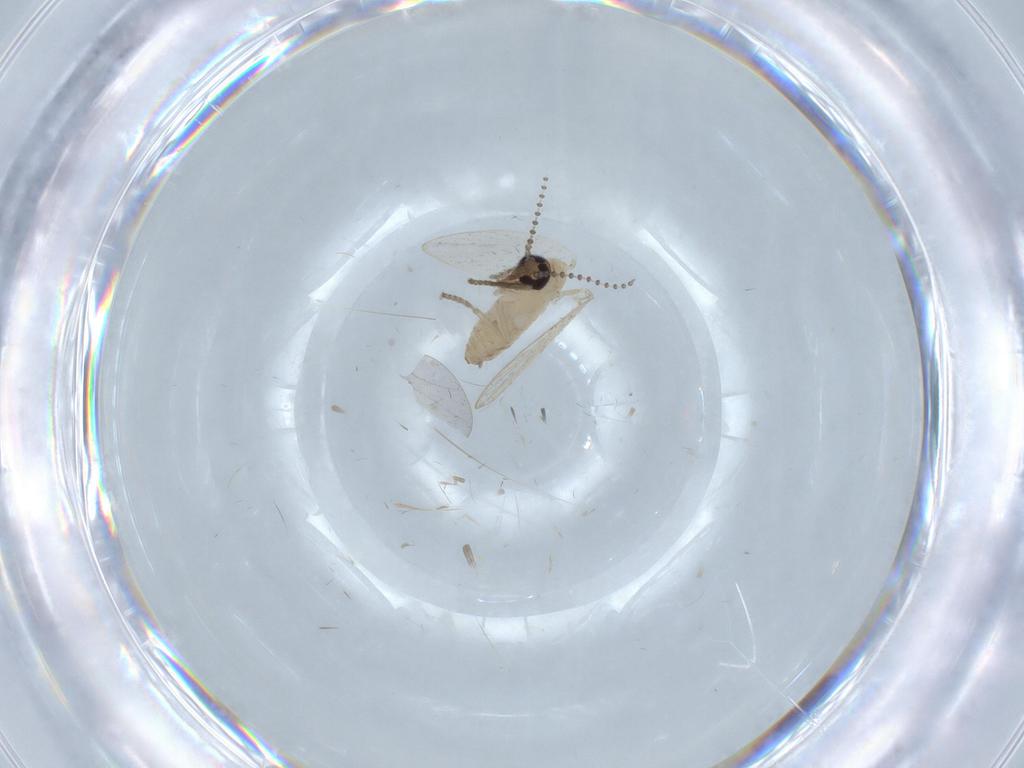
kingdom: Animalia
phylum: Arthropoda
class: Insecta
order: Diptera
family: Psychodidae
